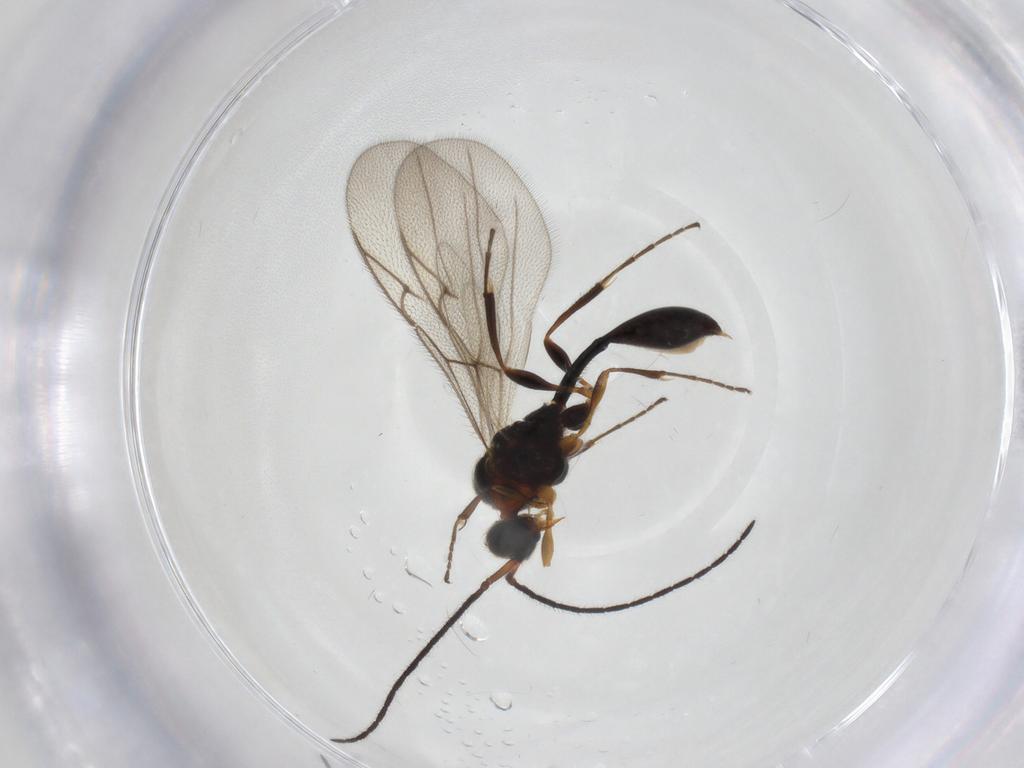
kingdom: Animalia
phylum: Arthropoda
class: Insecta
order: Hymenoptera
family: Diapriidae
